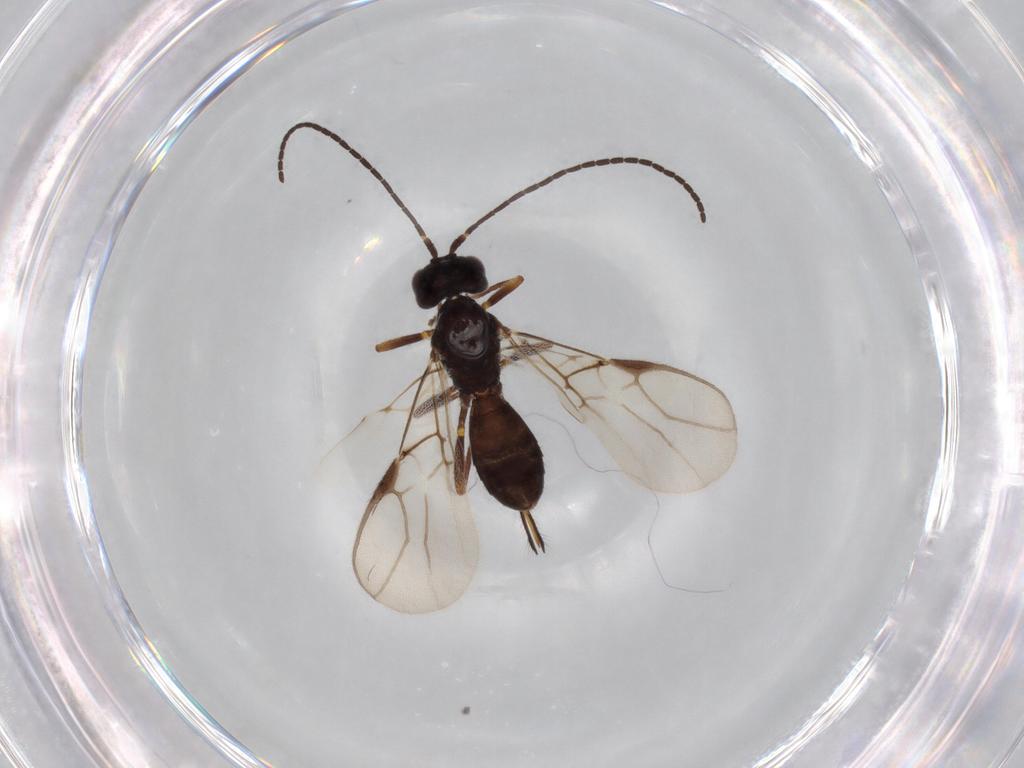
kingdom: Animalia
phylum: Arthropoda
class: Insecta
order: Hymenoptera
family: Braconidae
